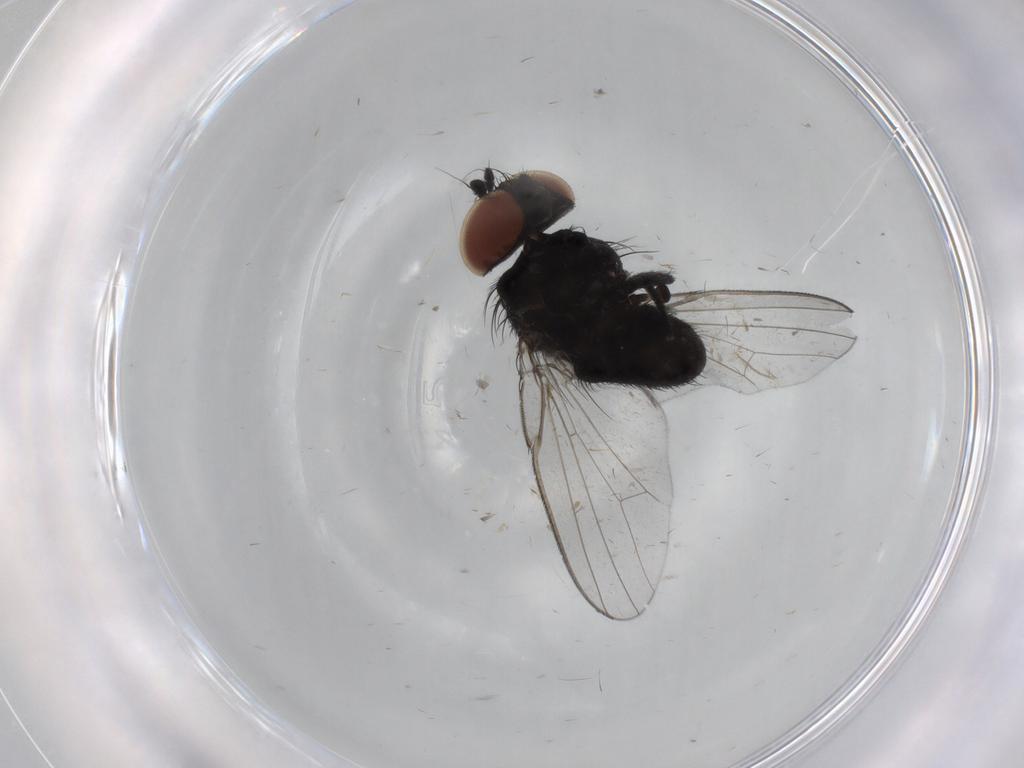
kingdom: Animalia
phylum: Arthropoda
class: Insecta
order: Diptera
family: Milichiidae
